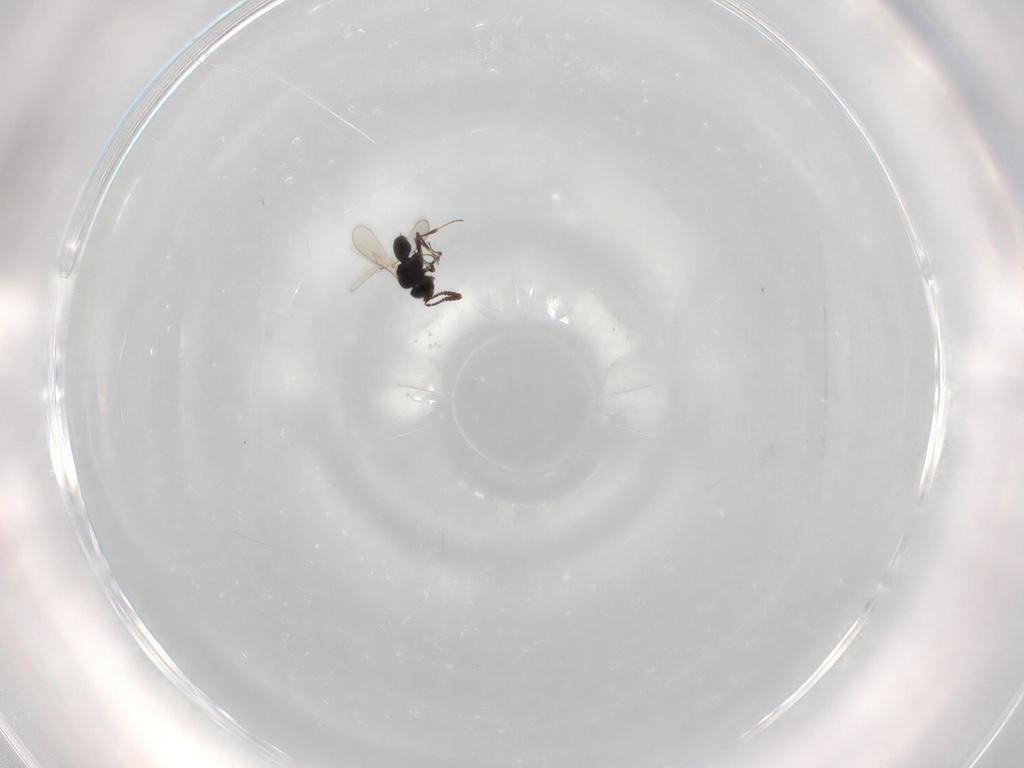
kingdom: Animalia
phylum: Arthropoda
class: Insecta
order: Hymenoptera
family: Scelionidae
